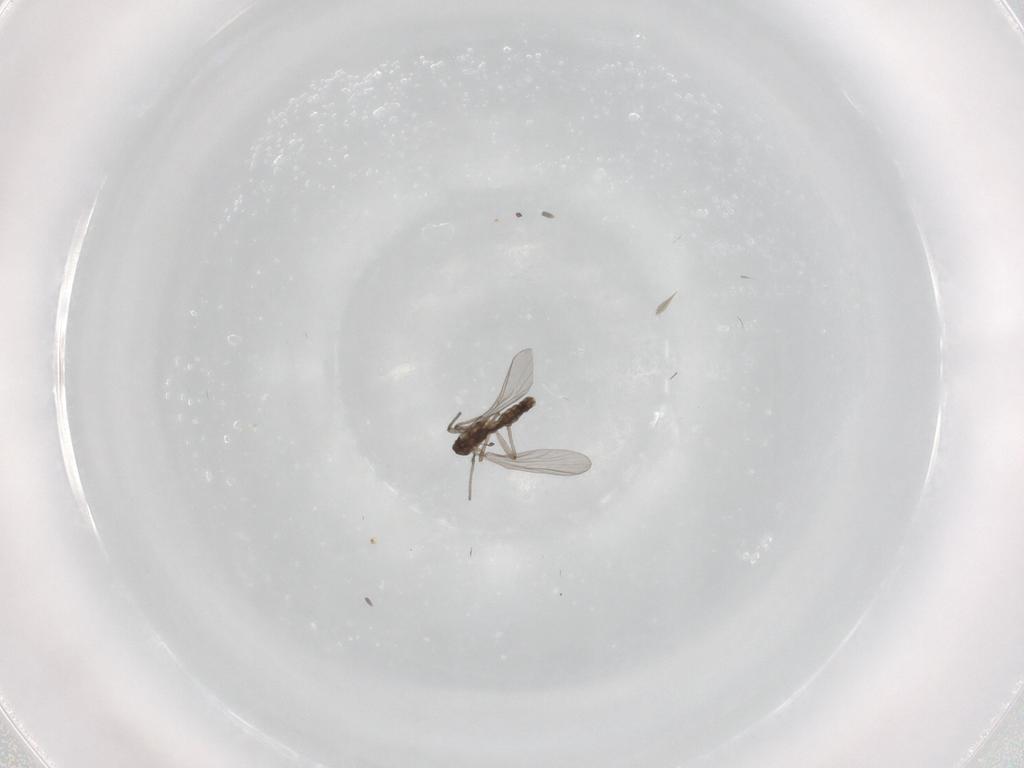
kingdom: Animalia
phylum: Arthropoda
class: Insecta
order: Diptera
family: Chironomidae
